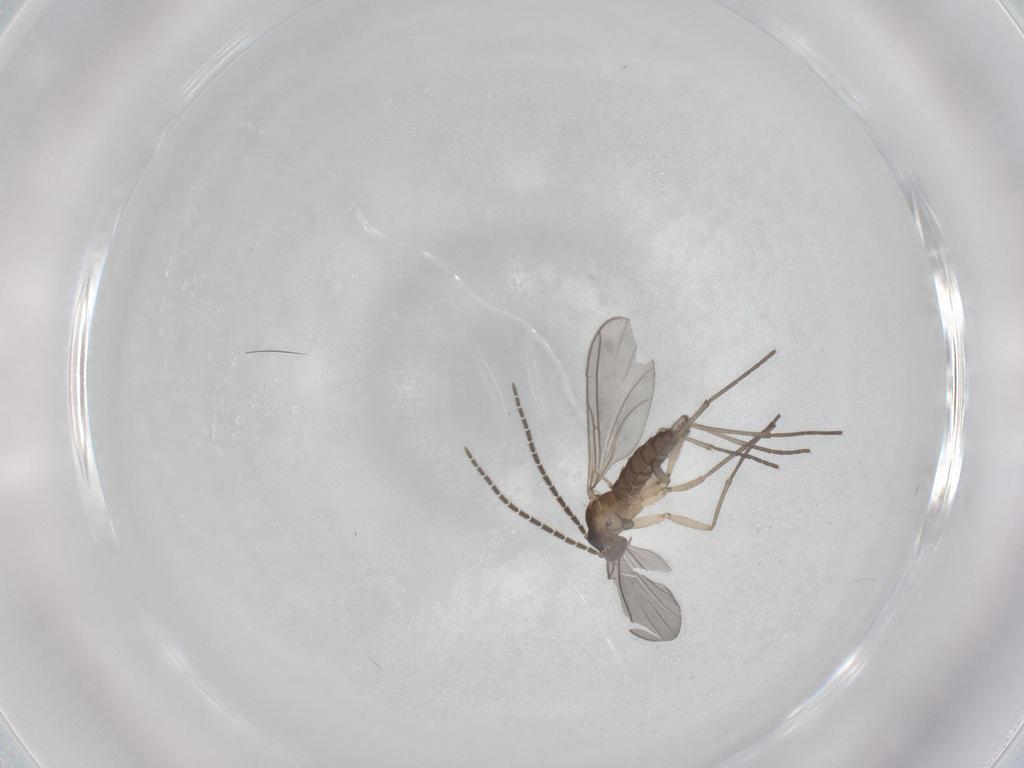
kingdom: Animalia
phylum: Arthropoda
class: Insecta
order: Diptera
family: Sciaridae
